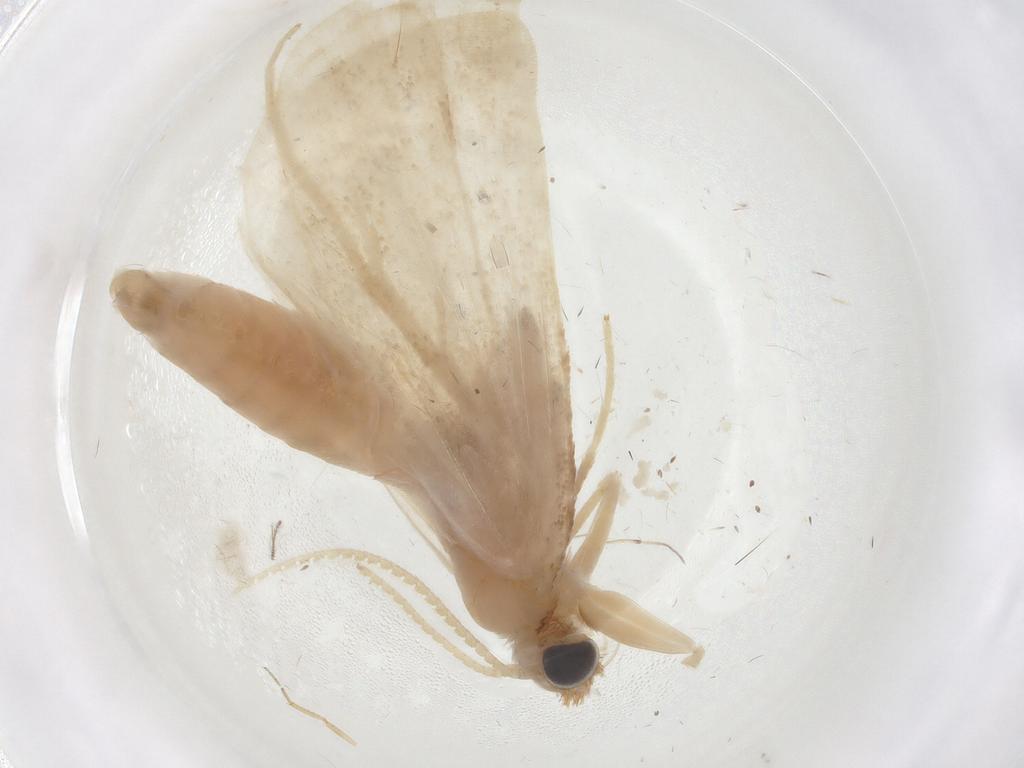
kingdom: Animalia
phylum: Arthropoda
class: Insecta
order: Lepidoptera
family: Crambidae
